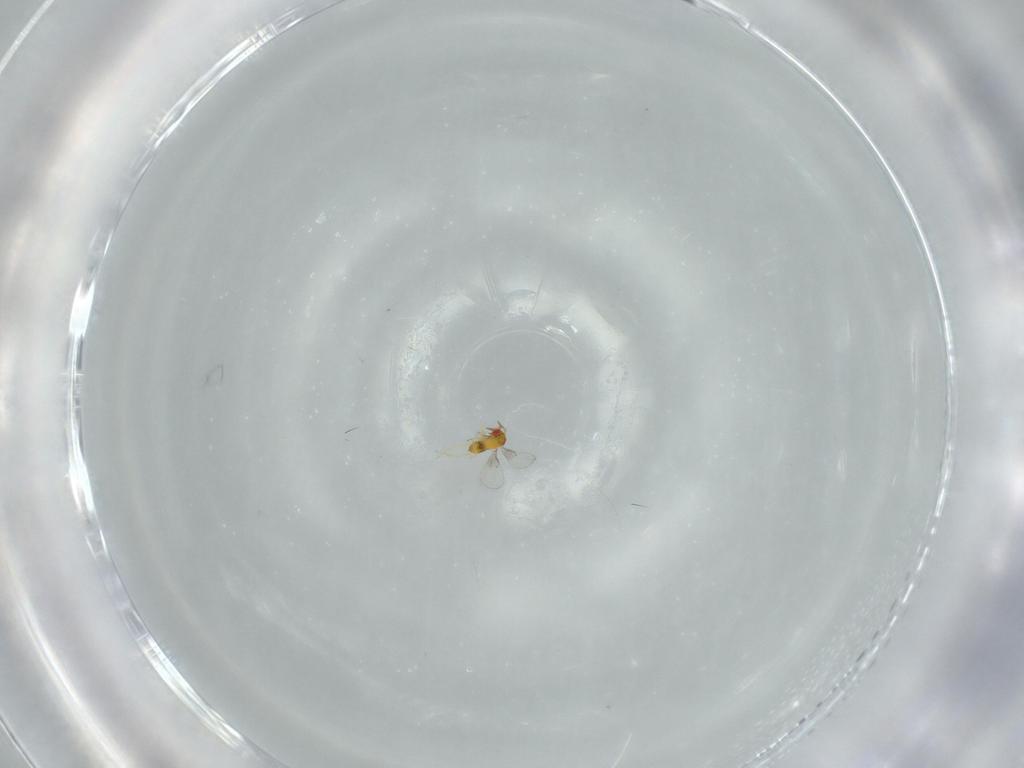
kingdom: Animalia
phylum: Arthropoda
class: Insecta
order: Hymenoptera
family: Trichogrammatidae
